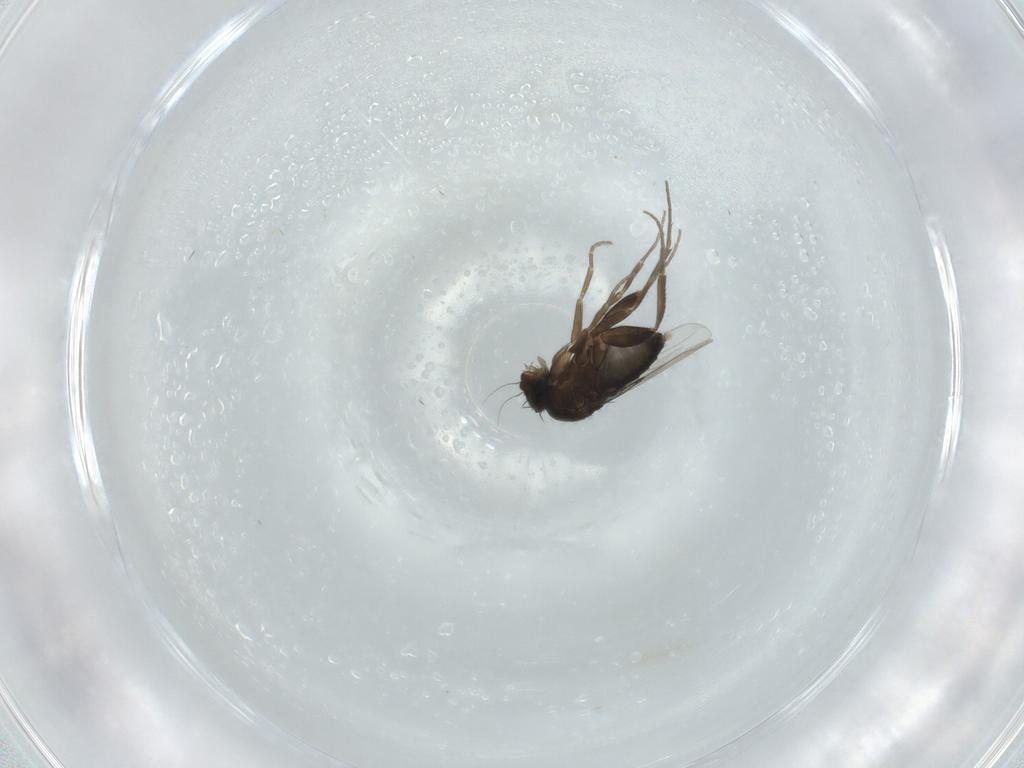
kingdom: Animalia
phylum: Arthropoda
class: Insecta
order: Diptera
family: Phoridae
